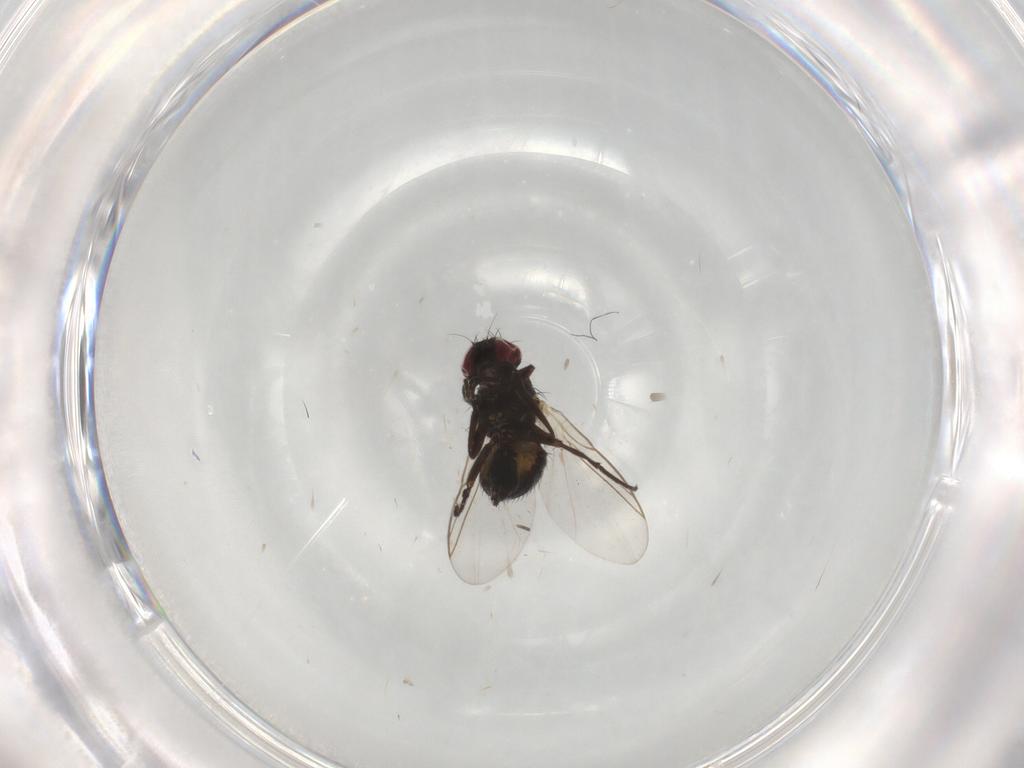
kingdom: Animalia
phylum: Arthropoda
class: Insecta
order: Diptera
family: Agromyzidae
